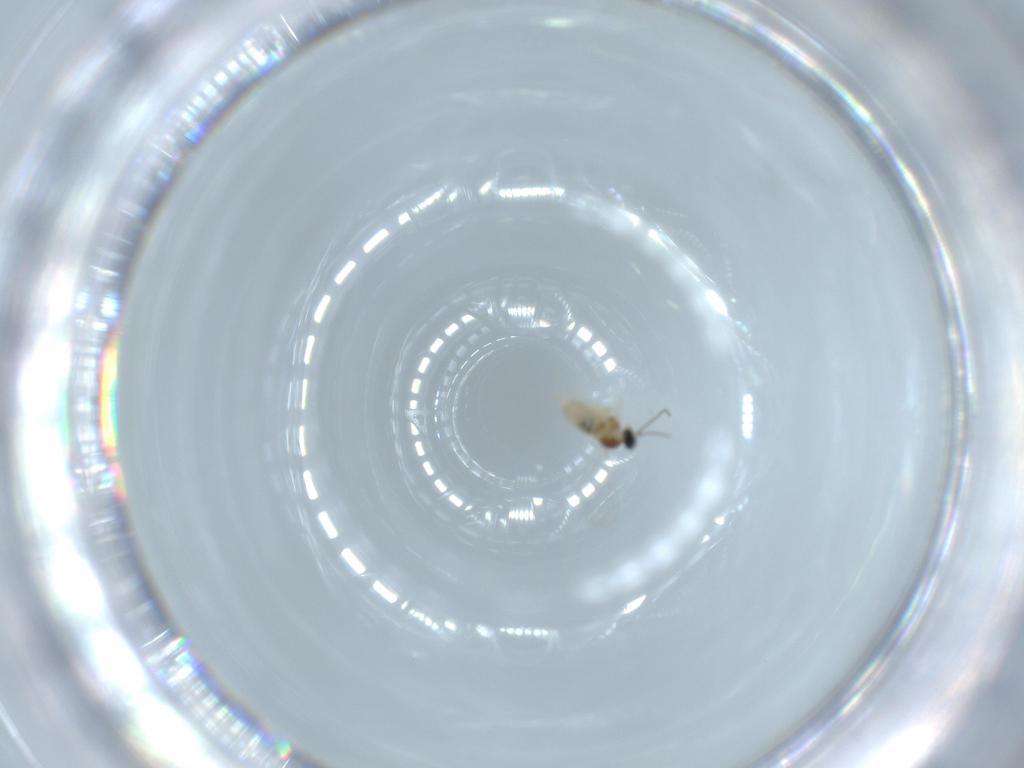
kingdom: Animalia
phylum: Arthropoda
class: Insecta
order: Diptera
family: Cecidomyiidae
